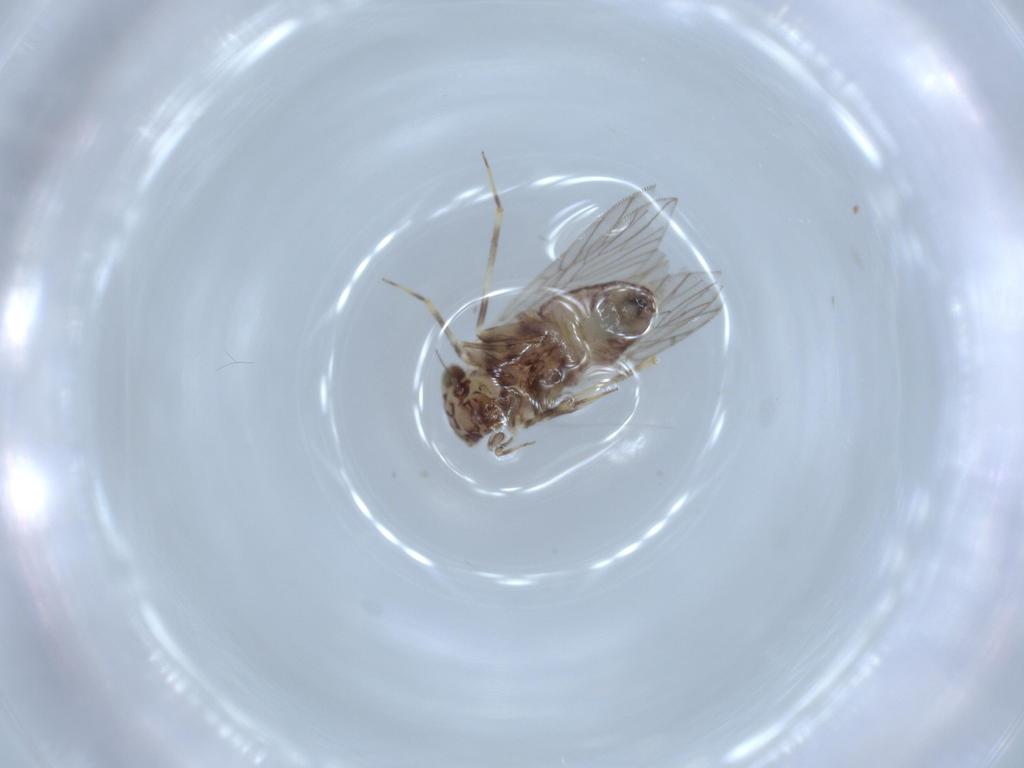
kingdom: Animalia
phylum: Arthropoda
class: Insecta
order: Psocodea
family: Lepidopsocidae
